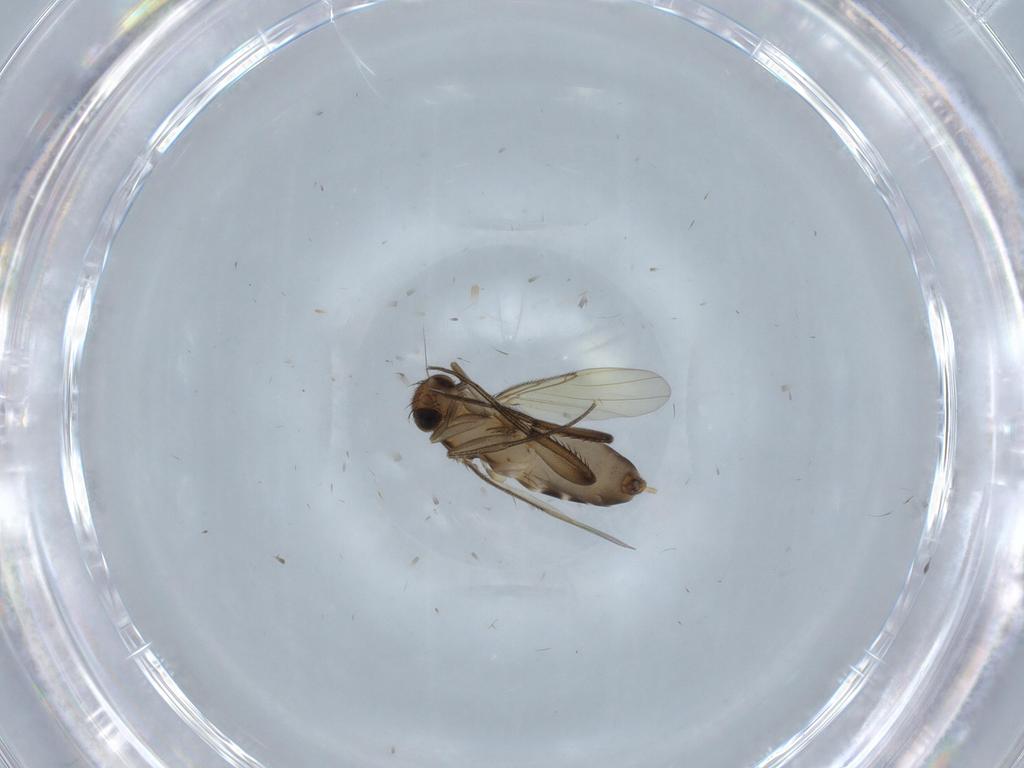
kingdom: Animalia
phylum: Arthropoda
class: Insecta
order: Diptera
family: Phoridae
